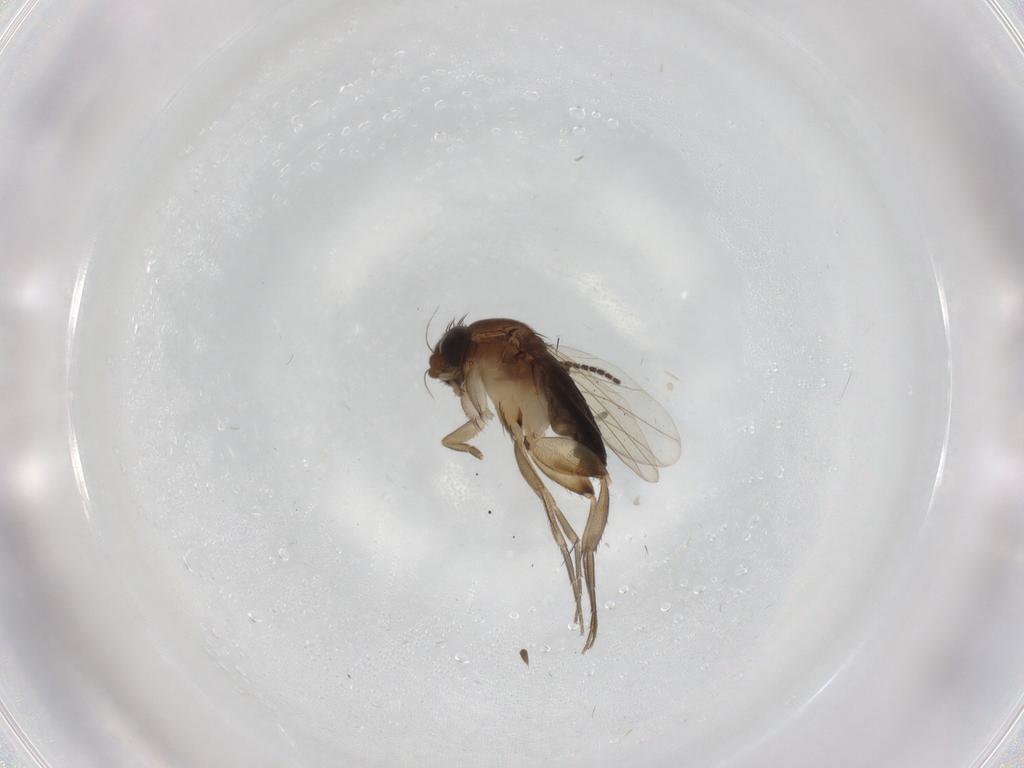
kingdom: Animalia
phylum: Arthropoda
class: Insecta
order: Diptera
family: Phoridae
